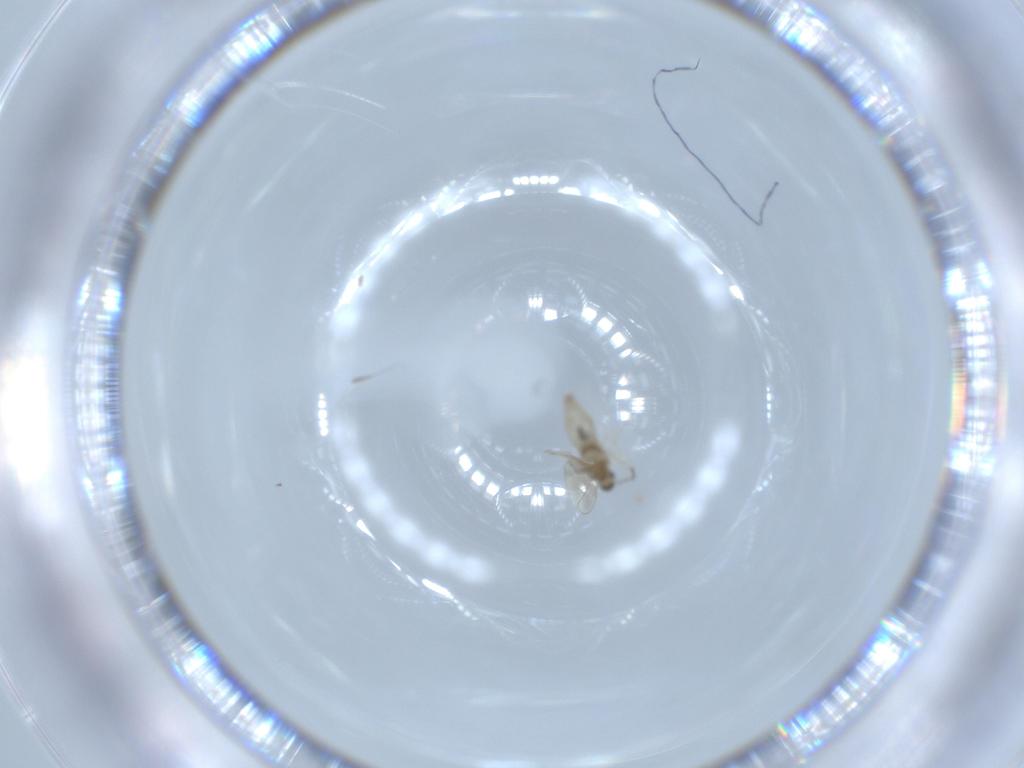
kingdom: Animalia
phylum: Arthropoda
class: Insecta
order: Diptera
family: Cecidomyiidae
